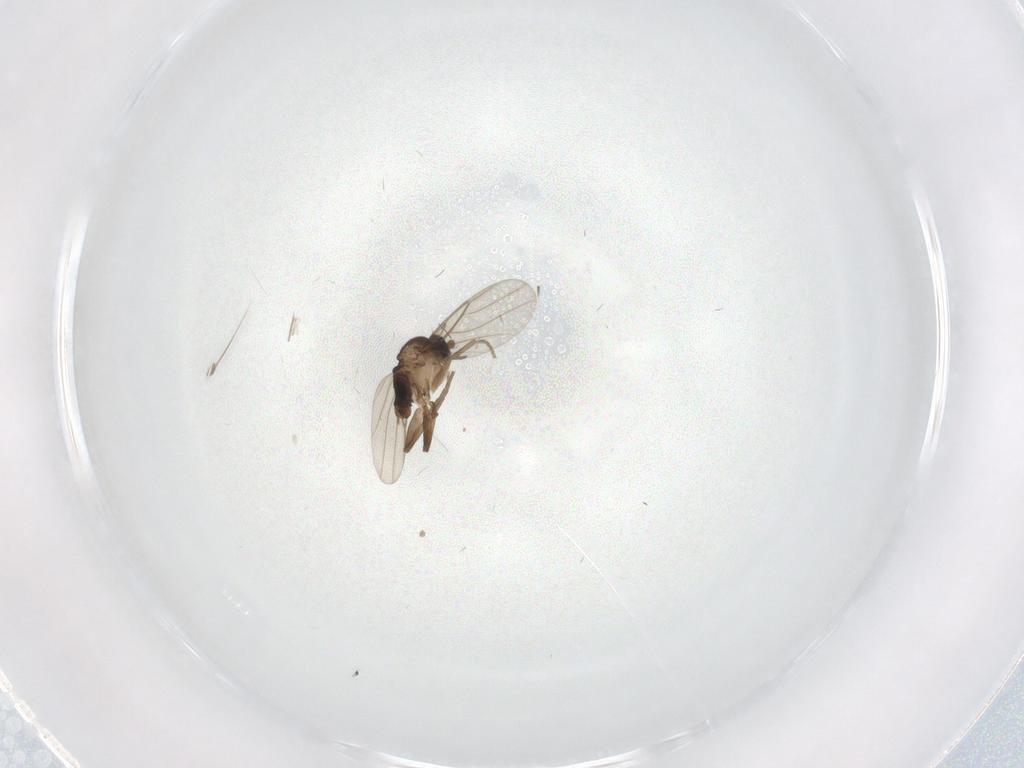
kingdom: Animalia
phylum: Arthropoda
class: Insecta
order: Diptera
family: Chironomidae
